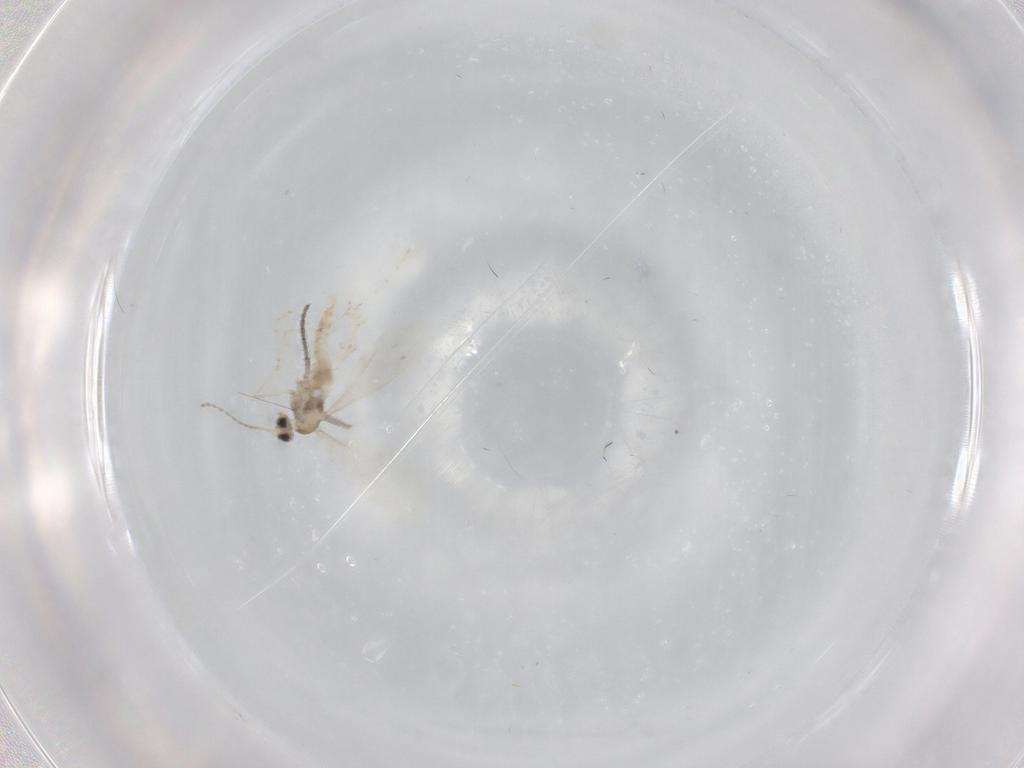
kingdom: Animalia
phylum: Arthropoda
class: Insecta
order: Diptera
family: Cecidomyiidae
